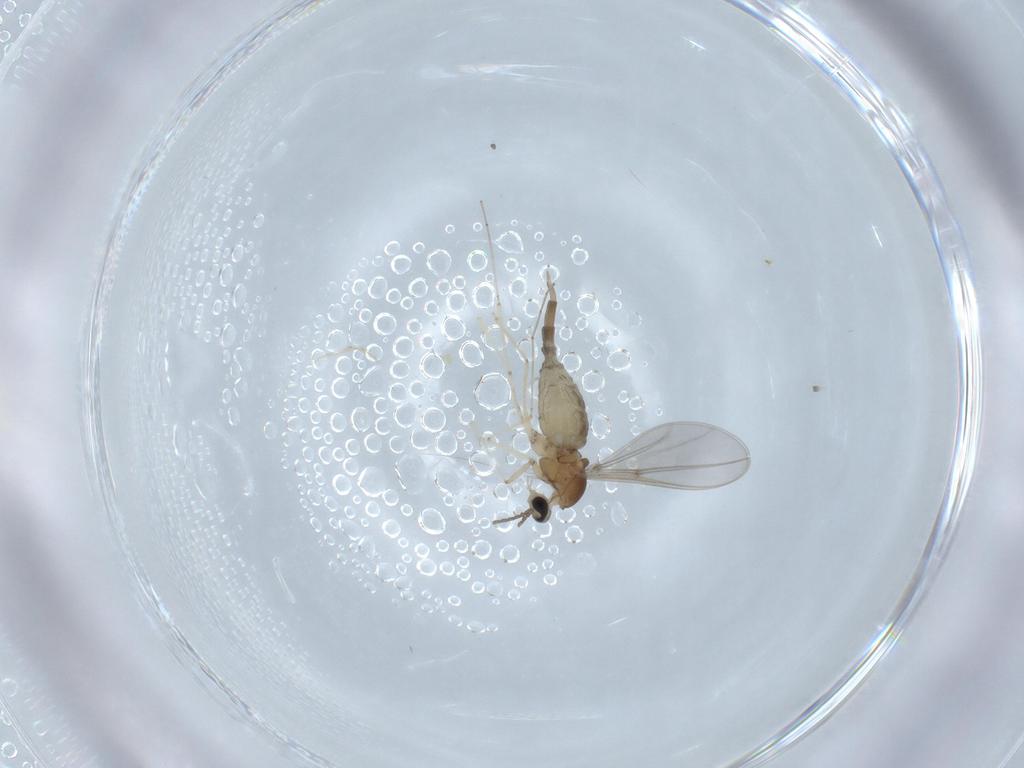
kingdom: Animalia
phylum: Arthropoda
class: Insecta
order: Diptera
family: Cecidomyiidae
